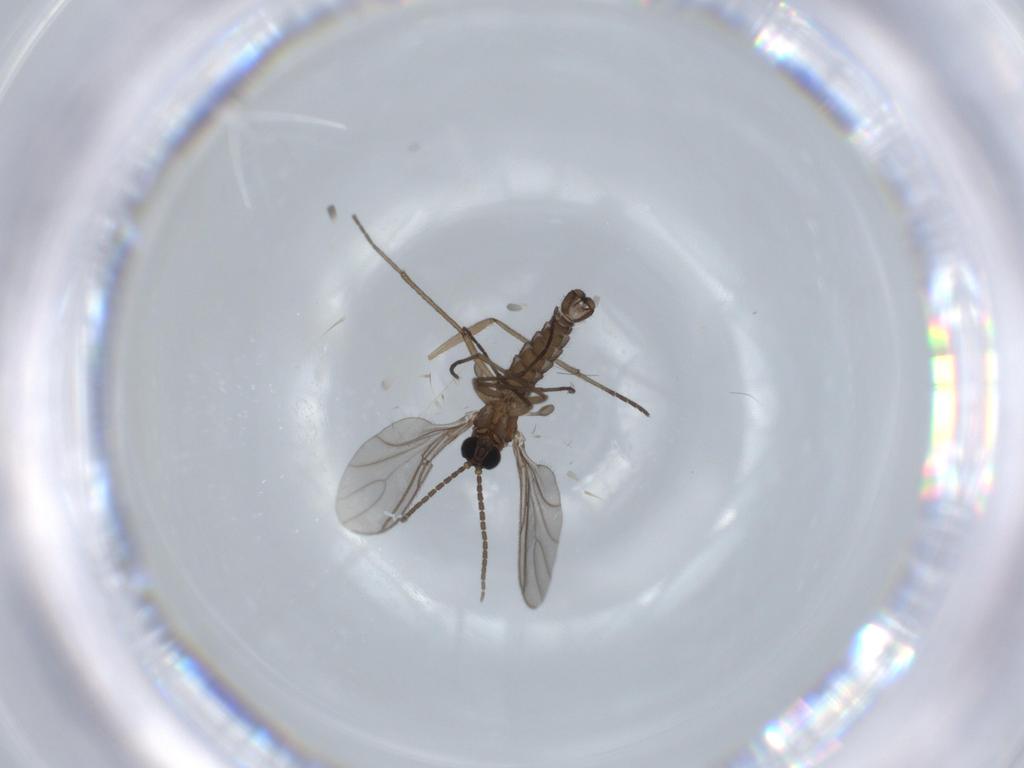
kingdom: Animalia
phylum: Arthropoda
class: Insecta
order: Diptera
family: Sciaridae
